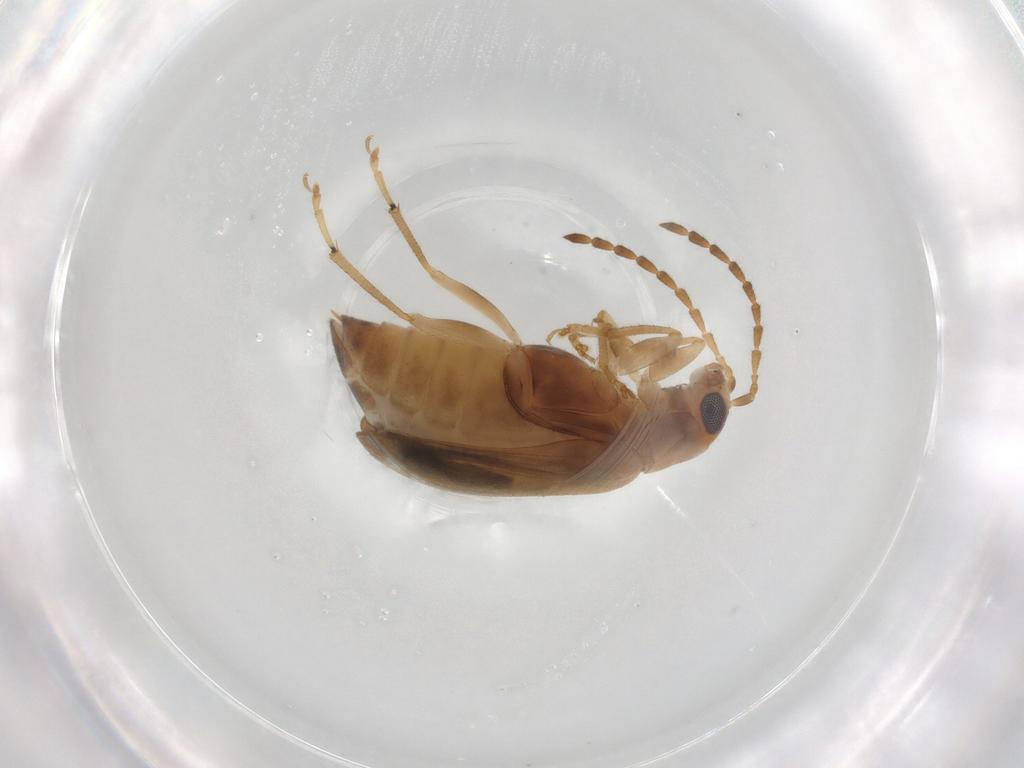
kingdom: Animalia
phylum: Arthropoda
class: Insecta
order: Coleoptera
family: Chrysomelidae
